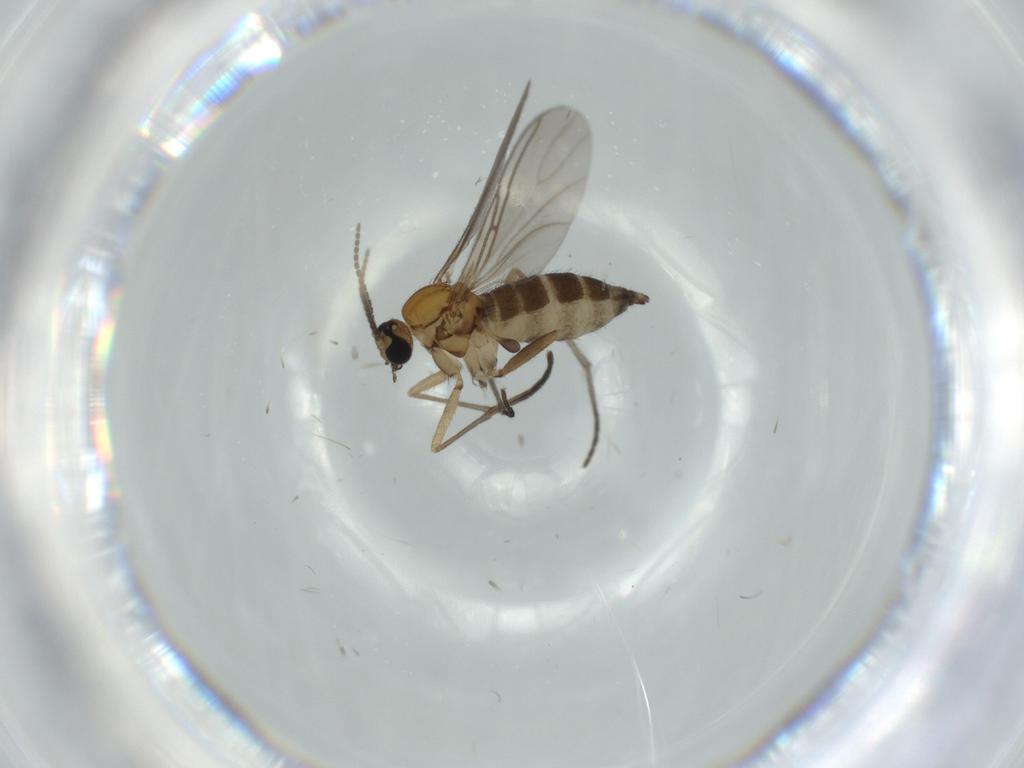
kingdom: Animalia
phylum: Arthropoda
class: Insecta
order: Diptera
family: Sciaridae
